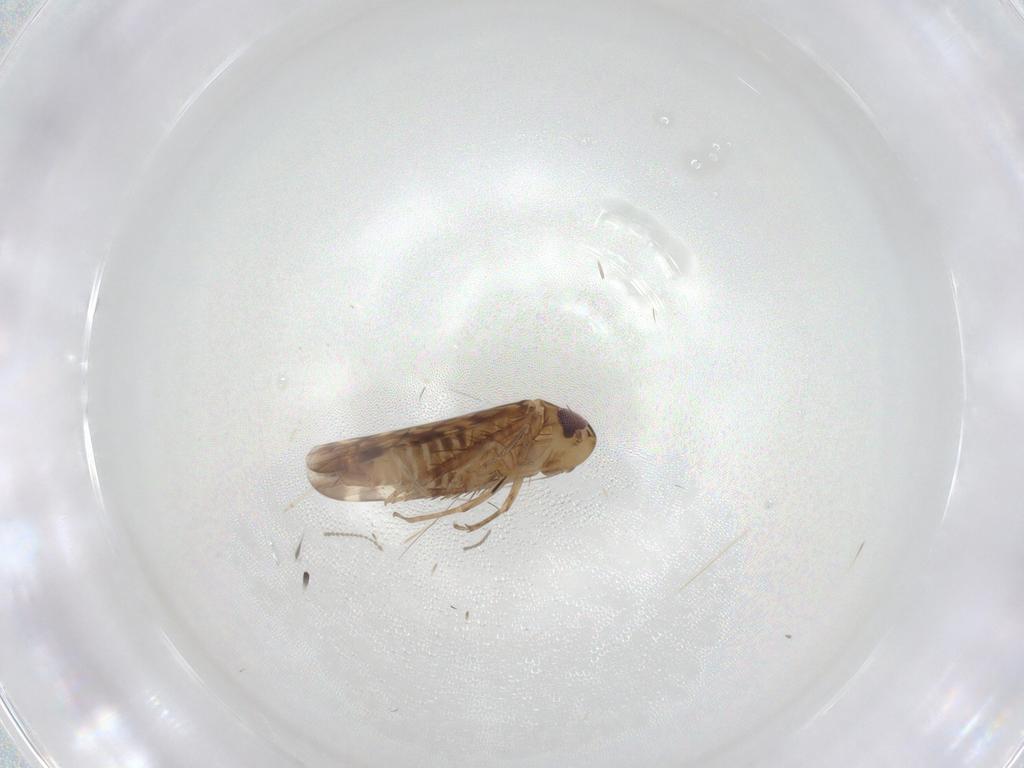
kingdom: Animalia
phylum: Arthropoda
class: Insecta
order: Hemiptera
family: Cicadellidae
